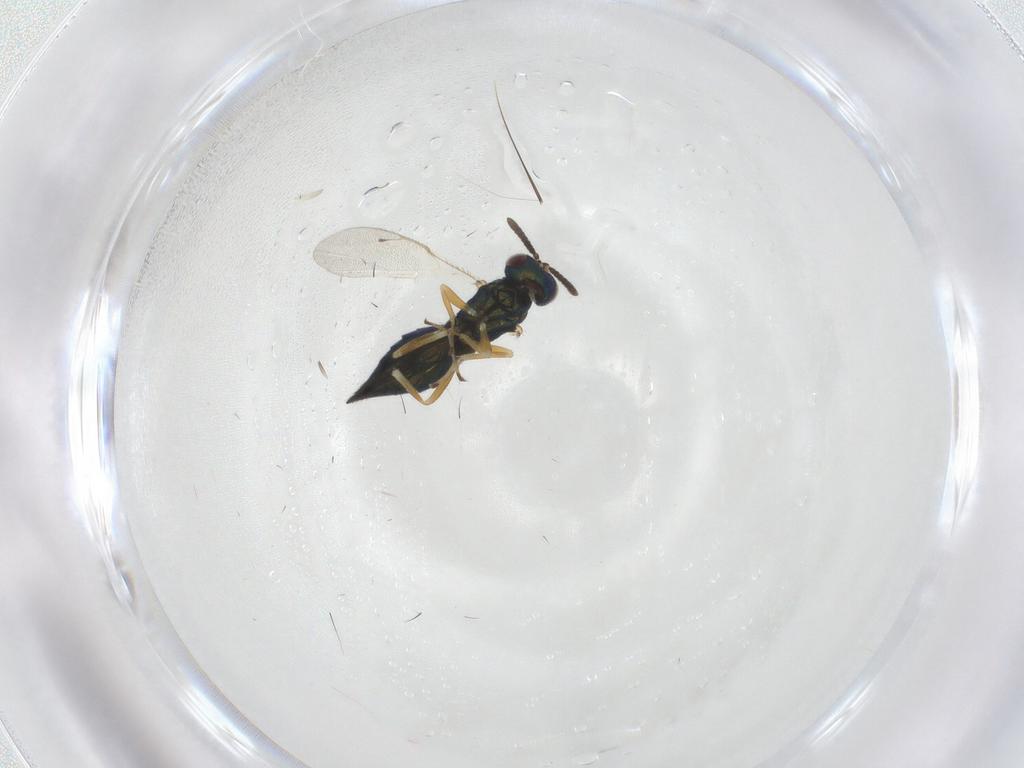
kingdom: Animalia
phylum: Arthropoda
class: Insecta
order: Hymenoptera
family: Pteromalidae
